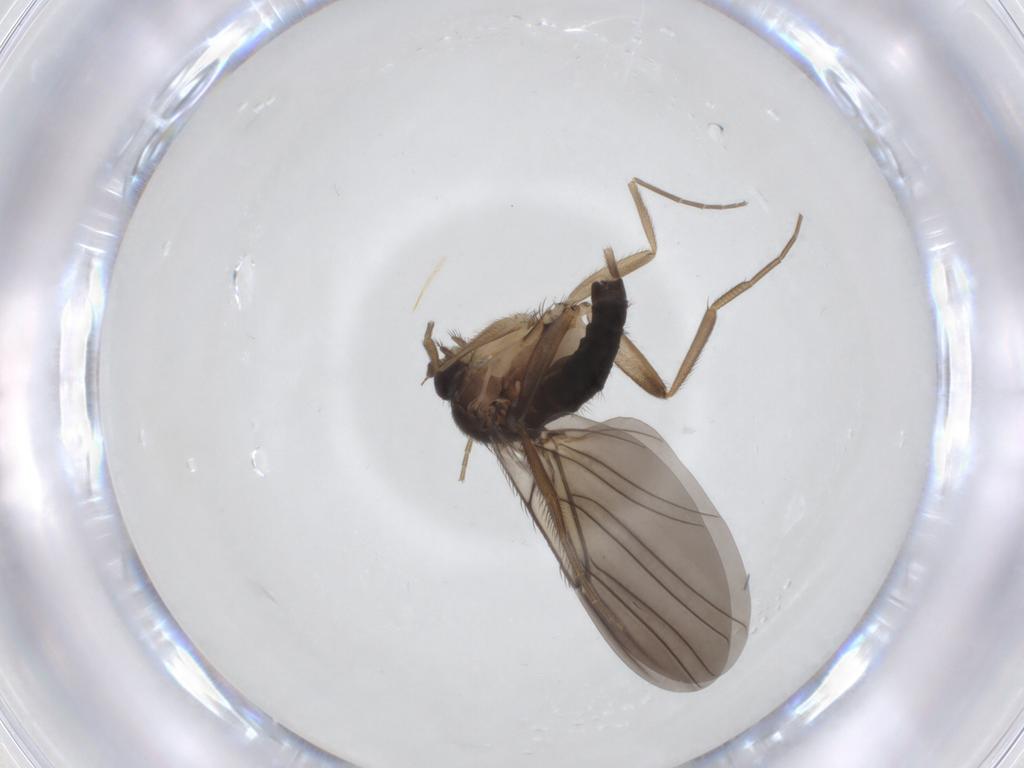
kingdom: Animalia
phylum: Arthropoda
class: Insecta
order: Diptera
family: Phoridae
